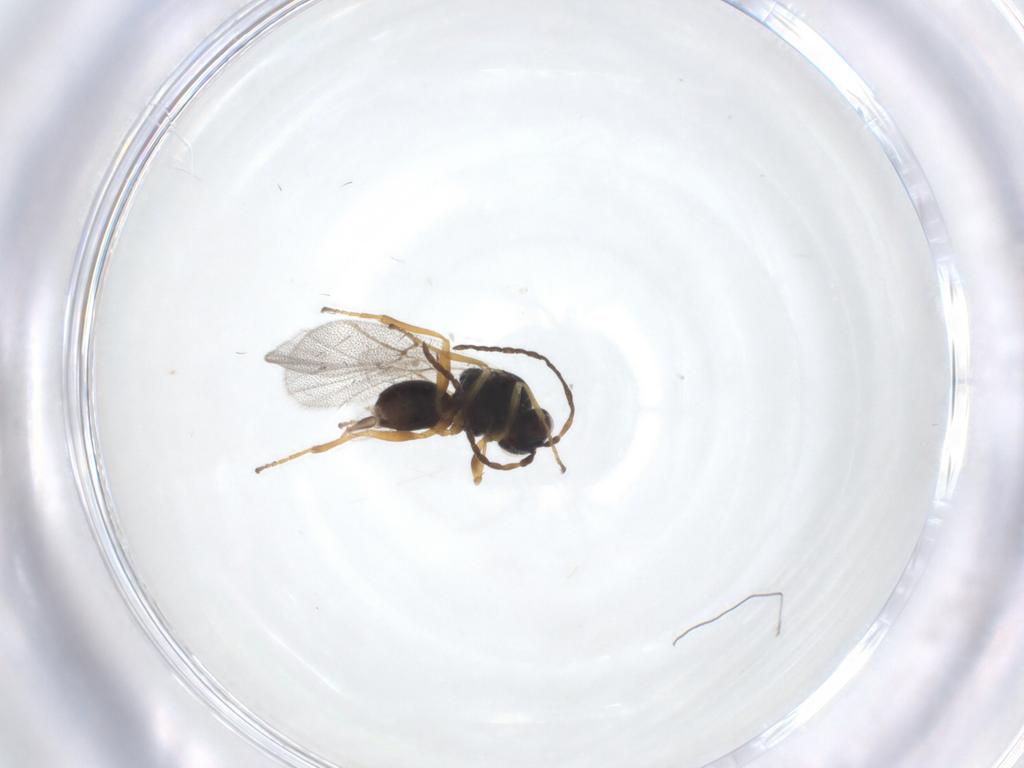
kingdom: Animalia
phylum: Arthropoda
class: Insecta
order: Hymenoptera
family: Cynipidae
